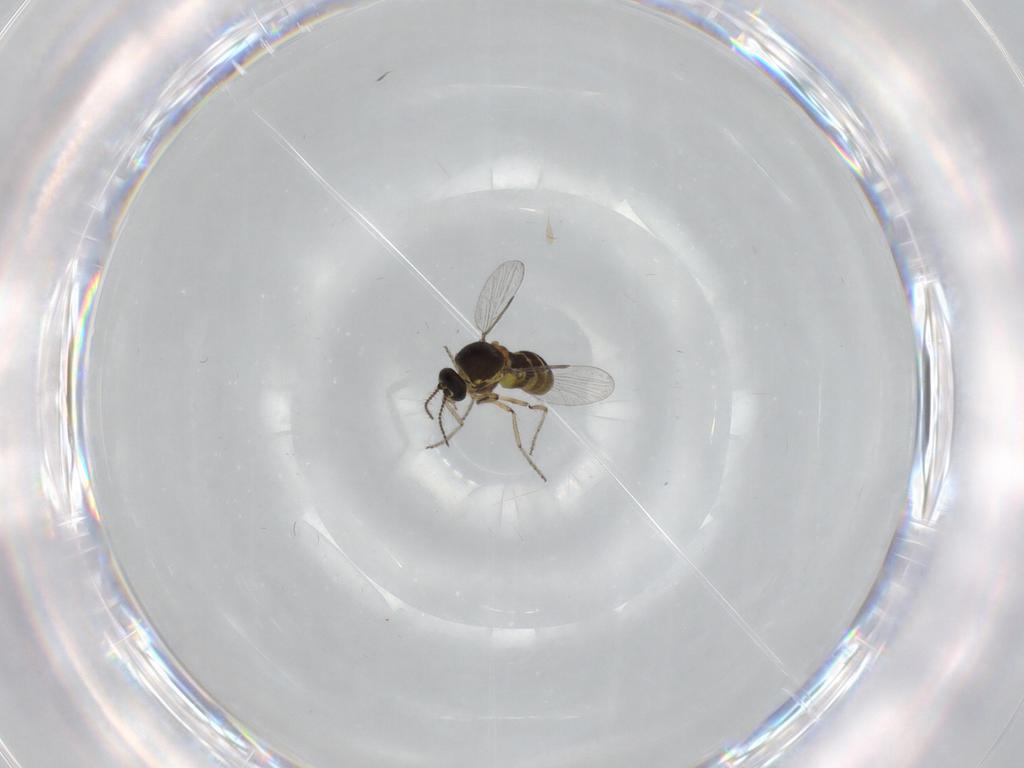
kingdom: Animalia
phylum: Arthropoda
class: Insecta
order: Diptera
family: Ceratopogonidae
